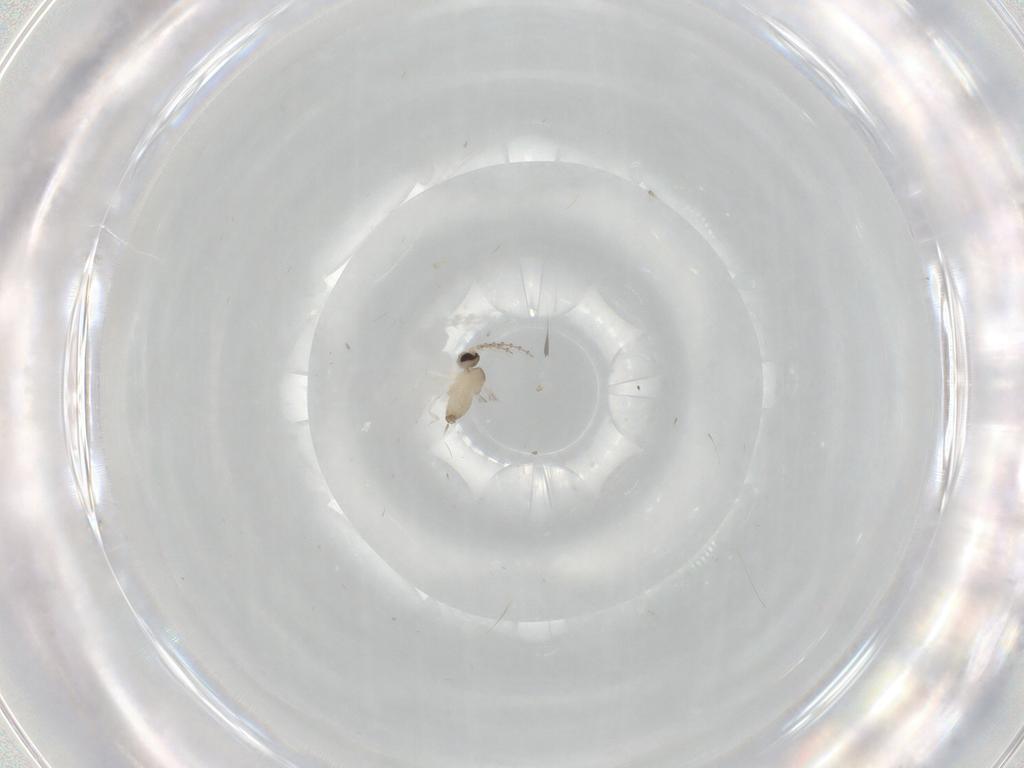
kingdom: Animalia
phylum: Arthropoda
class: Insecta
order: Diptera
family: Cecidomyiidae
